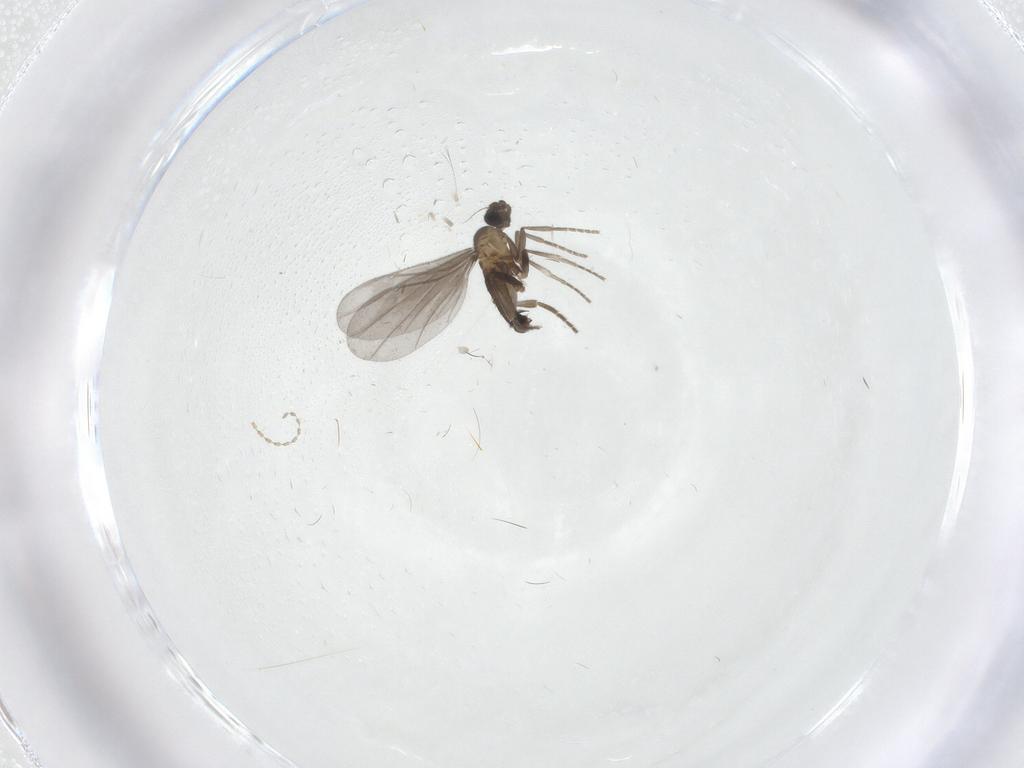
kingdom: Animalia
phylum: Arthropoda
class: Insecta
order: Diptera
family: Phoridae
